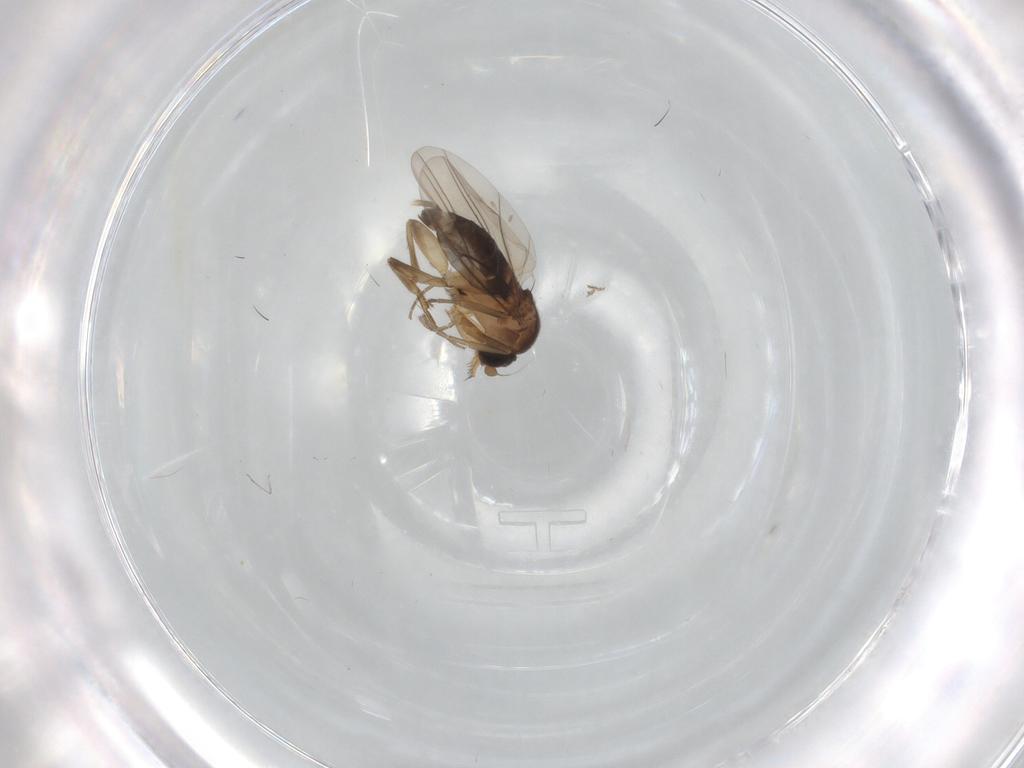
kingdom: Animalia
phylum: Arthropoda
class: Insecta
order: Diptera
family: Phoridae
